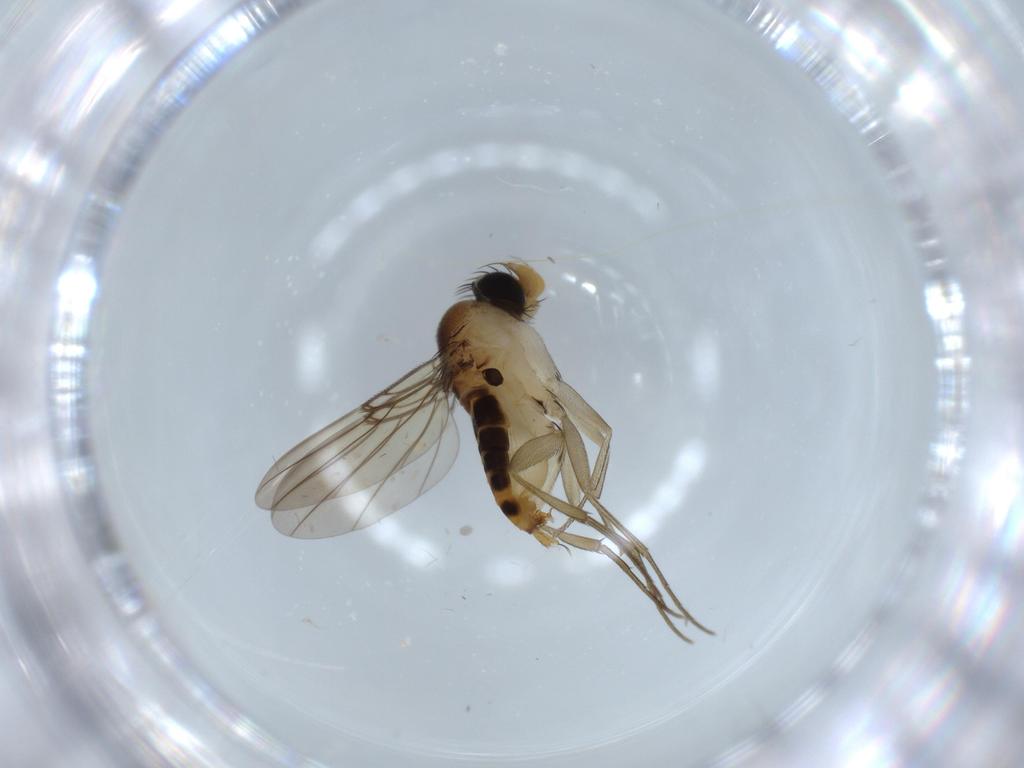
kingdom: Animalia
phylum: Arthropoda
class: Insecta
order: Diptera
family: Phoridae
